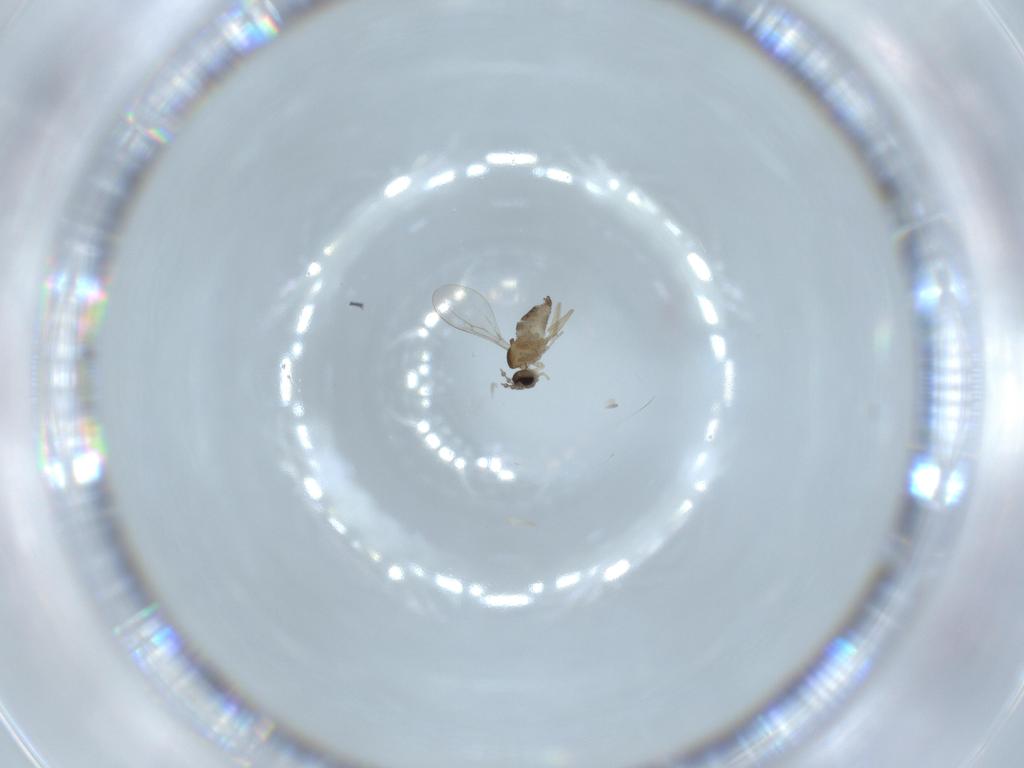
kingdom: Animalia
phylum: Arthropoda
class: Insecta
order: Diptera
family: Cecidomyiidae
